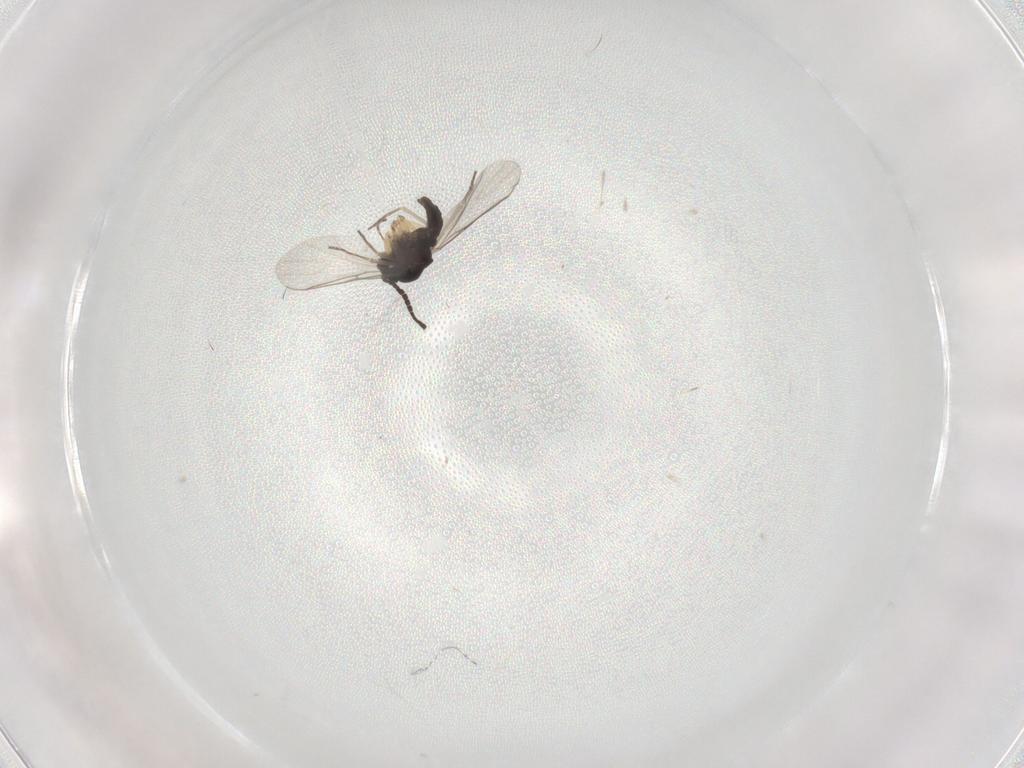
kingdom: Animalia
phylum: Arthropoda
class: Insecta
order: Diptera
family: Sciaridae
